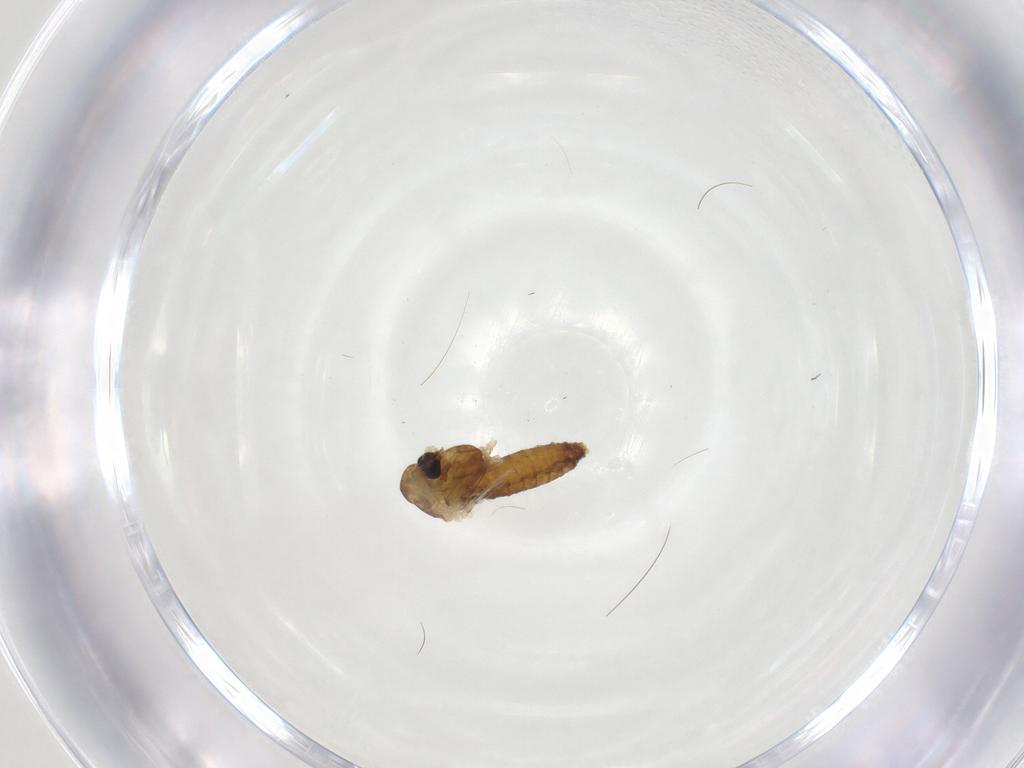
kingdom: Animalia
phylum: Arthropoda
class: Insecta
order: Diptera
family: Chironomidae
